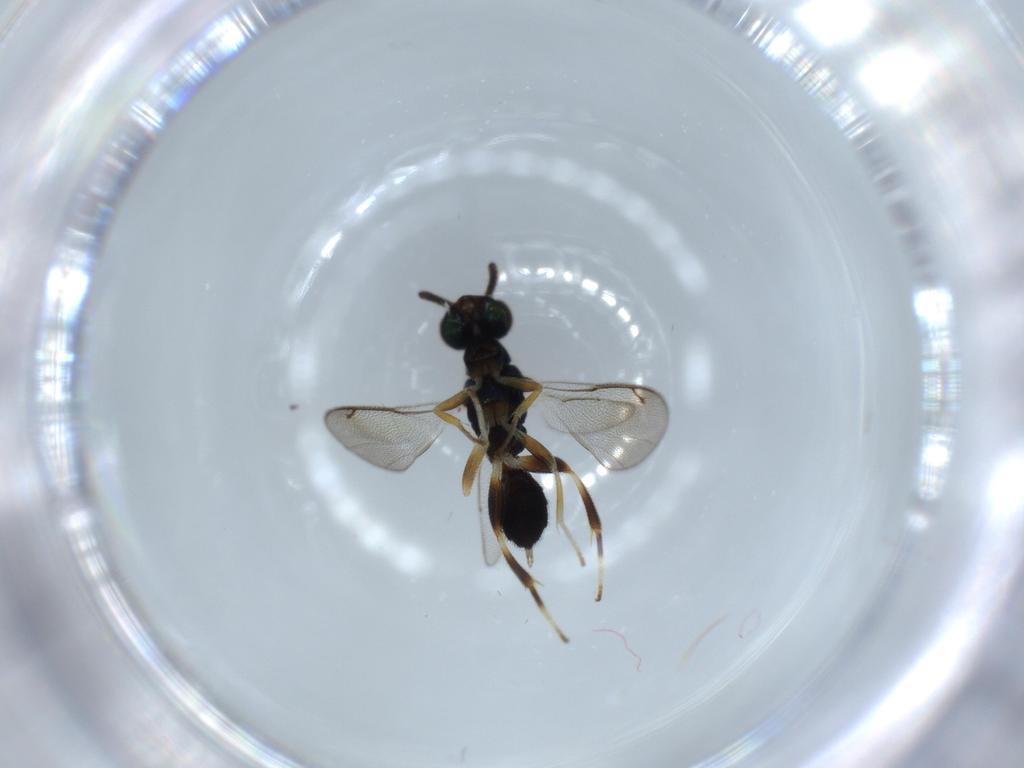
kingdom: Animalia
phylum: Arthropoda
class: Insecta
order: Hymenoptera
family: Cleonyminae
